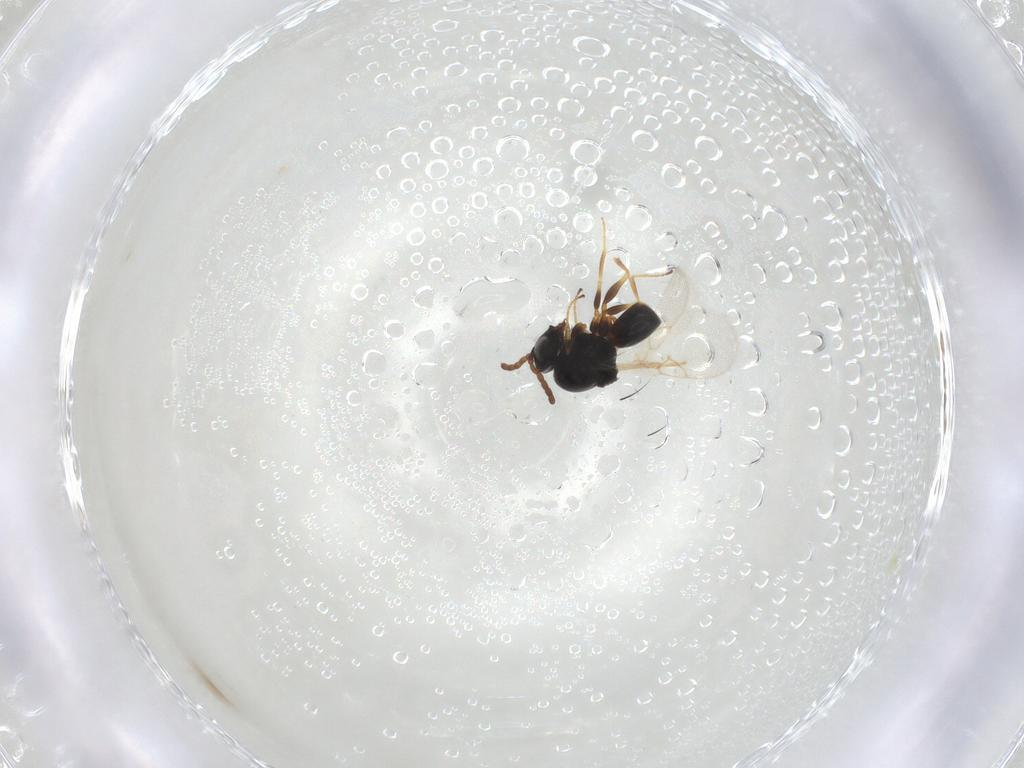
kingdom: Animalia
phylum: Arthropoda
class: Insecta
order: Hymenoptera
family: Figitidae
